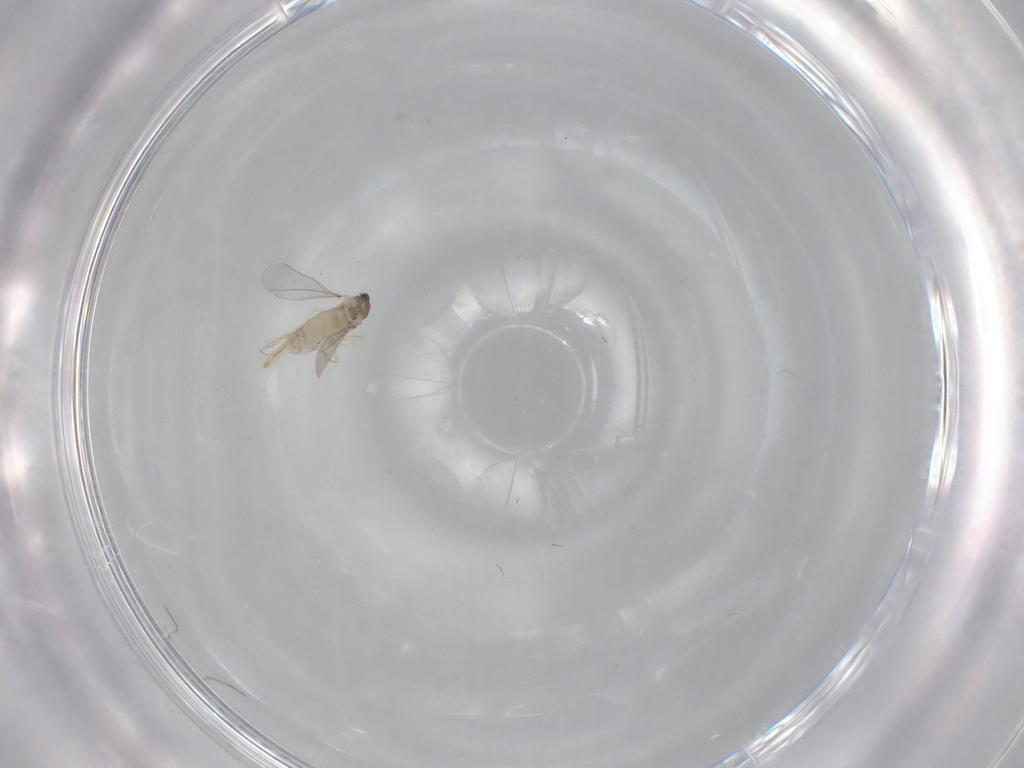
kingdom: Animalia
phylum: Arthropoda
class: Insecta
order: Diptera
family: Cecidomyiidae
